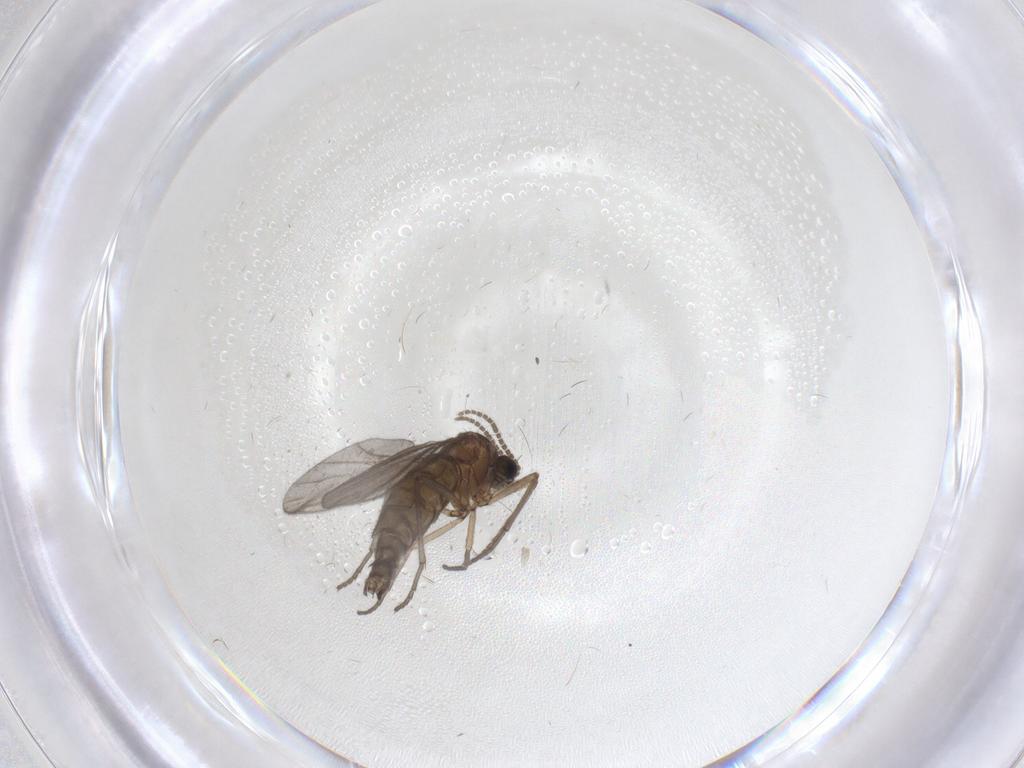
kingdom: Animalia
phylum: Arthropoda
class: Insecta
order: Diptera
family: Sciaridae
